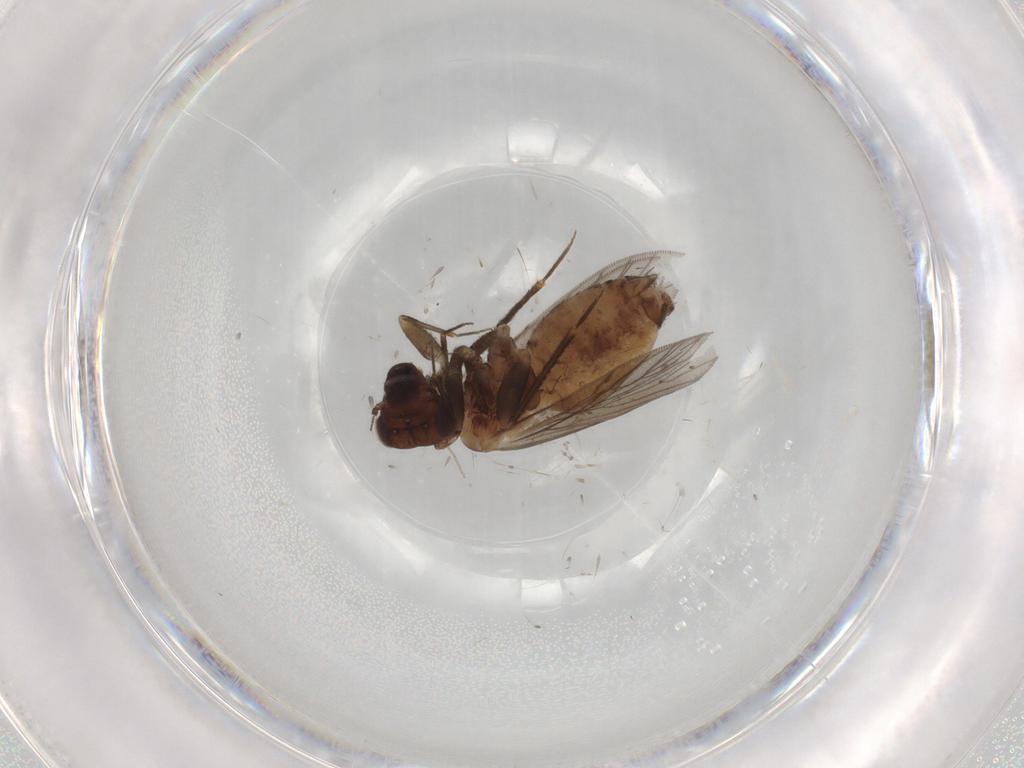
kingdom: Animalia
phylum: Arthropoda
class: Insecta
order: Psocodea
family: Lepidopsocidae
